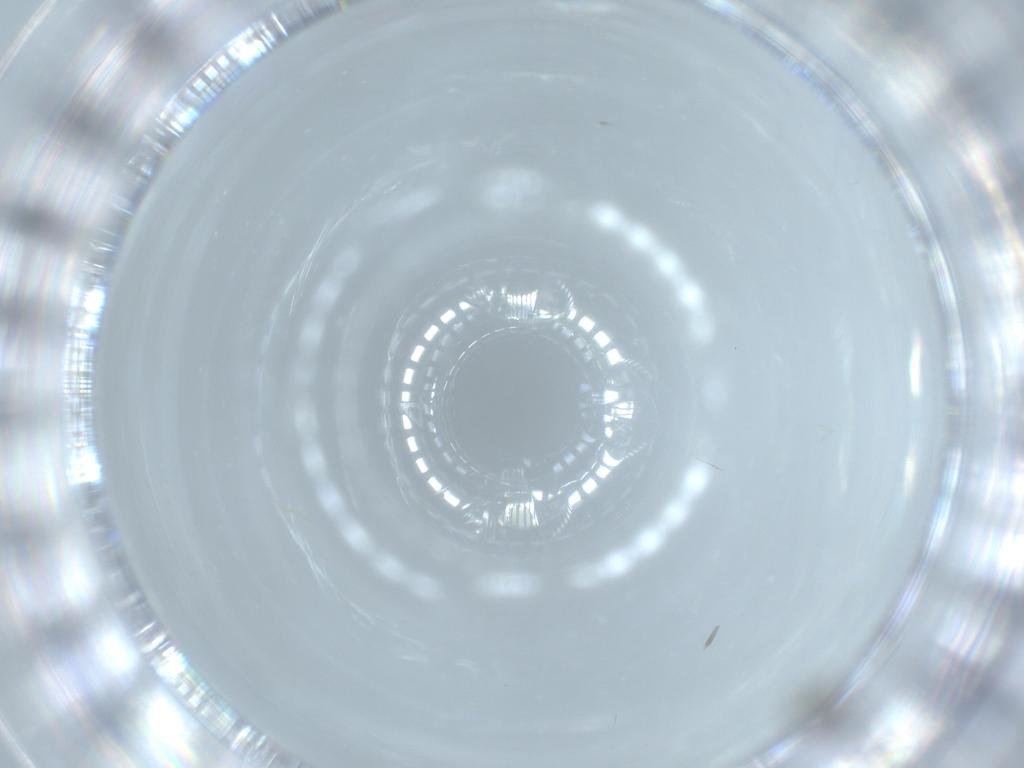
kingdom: Animalia
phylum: Arthropoda
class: Insecta
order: Diptera
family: Cecidomyiidae
